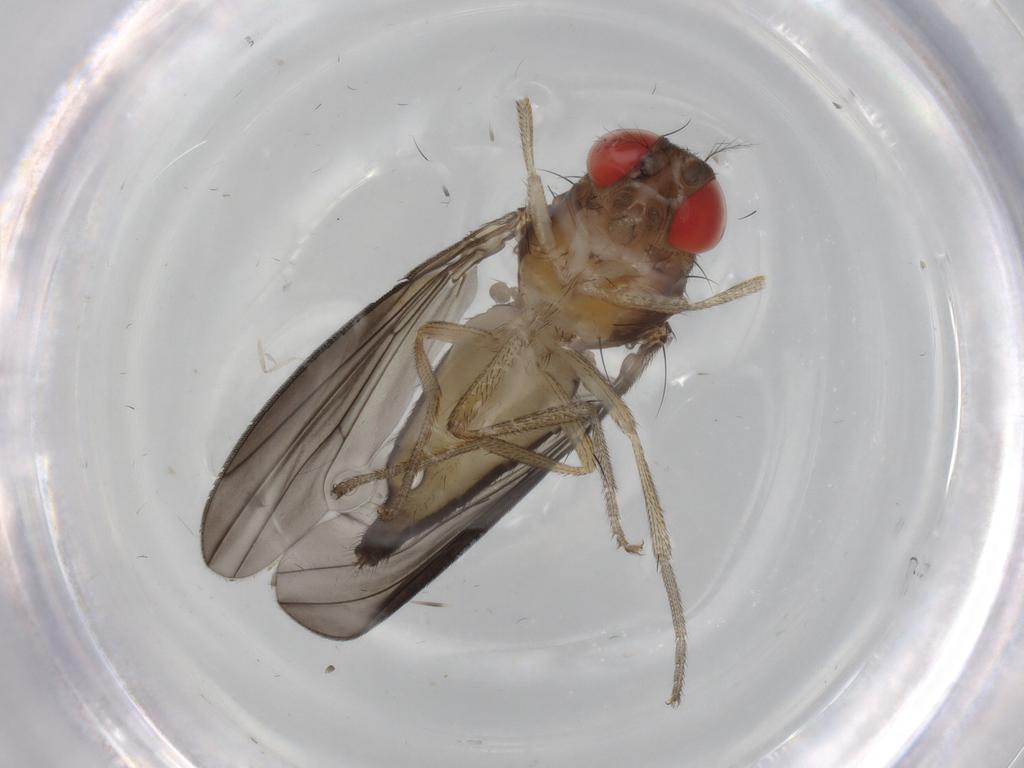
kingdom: Animalia
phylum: Arthropoda
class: Insecta
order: Diptera
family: Drosophilidae
